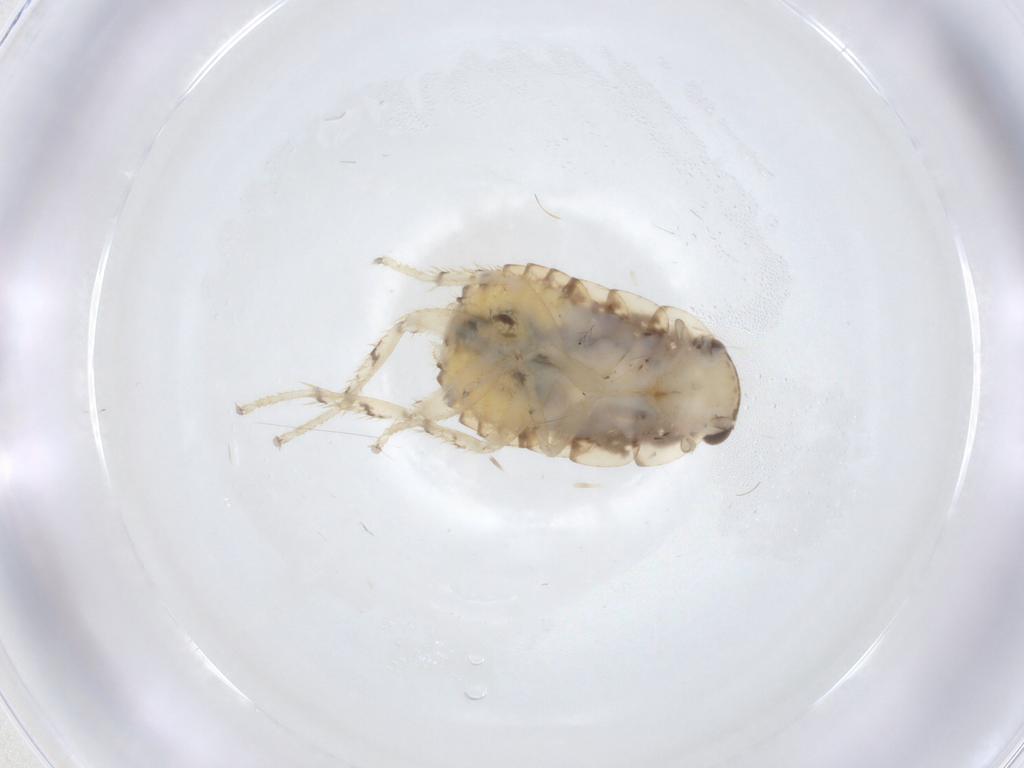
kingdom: Animalia
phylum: Arthropoda
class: Insecta
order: Blattodea
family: Ectobiidae
